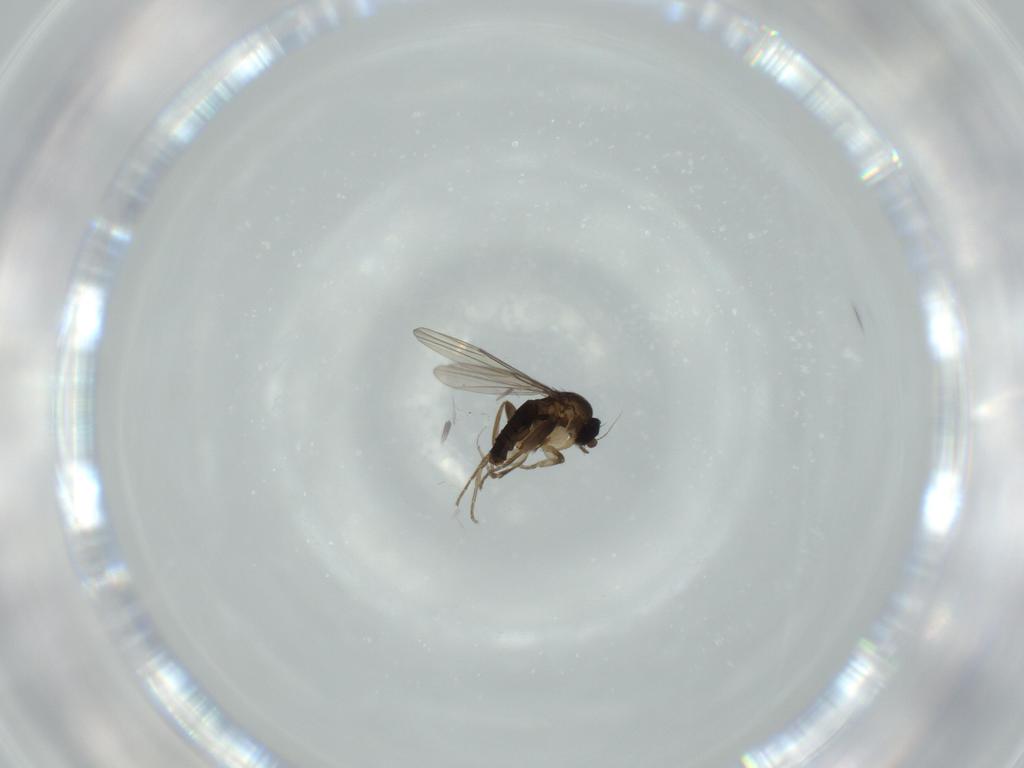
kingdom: Animalia
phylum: Arthropoda
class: Insecta
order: Diptera
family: Phoridae
